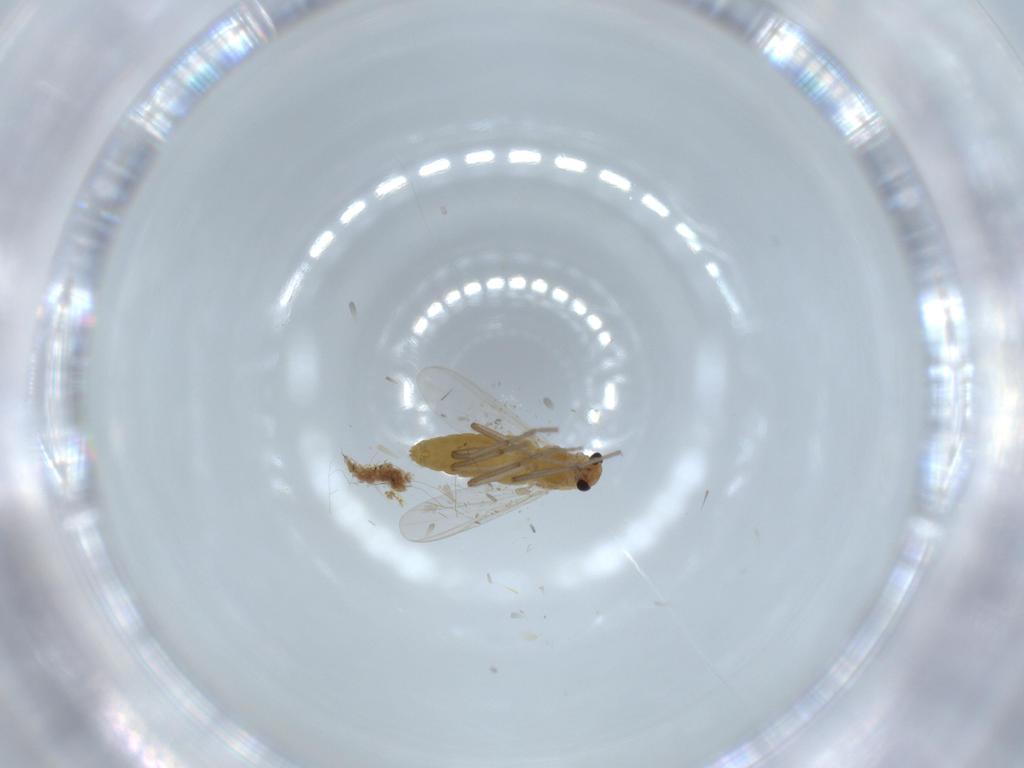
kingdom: Animalia
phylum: Arthropoda
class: Insecta
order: Diptera
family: Chironomidae
